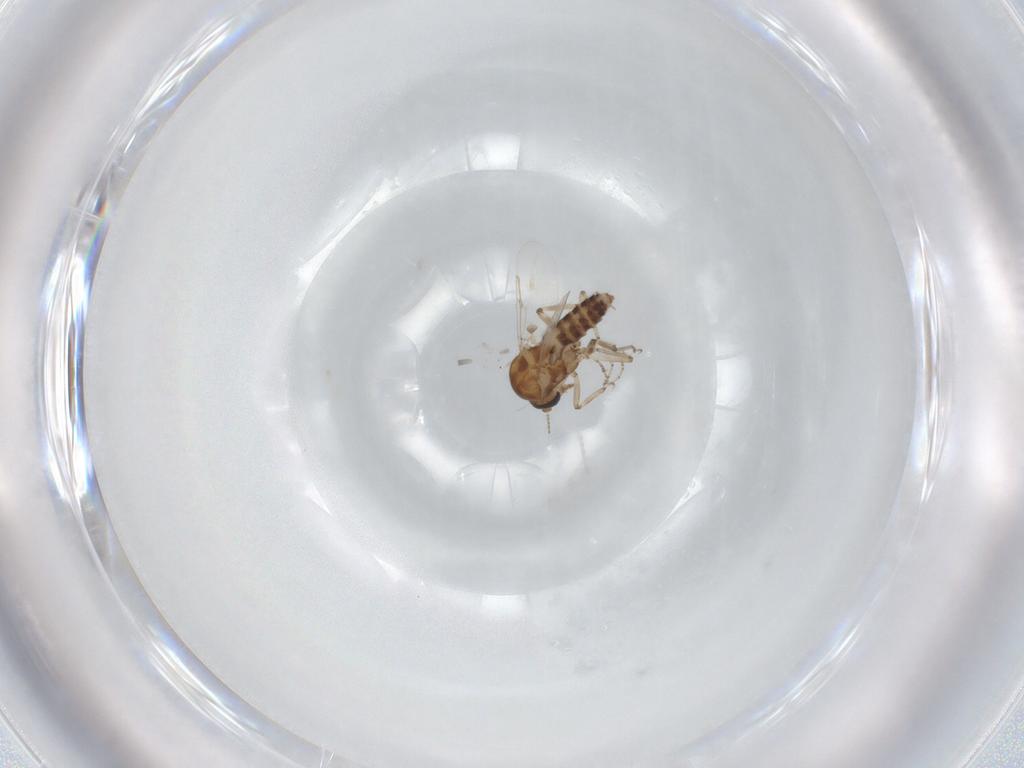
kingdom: Animalia
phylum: Arthropoda
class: Insecta
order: Diptera
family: Ceratopogonidae
